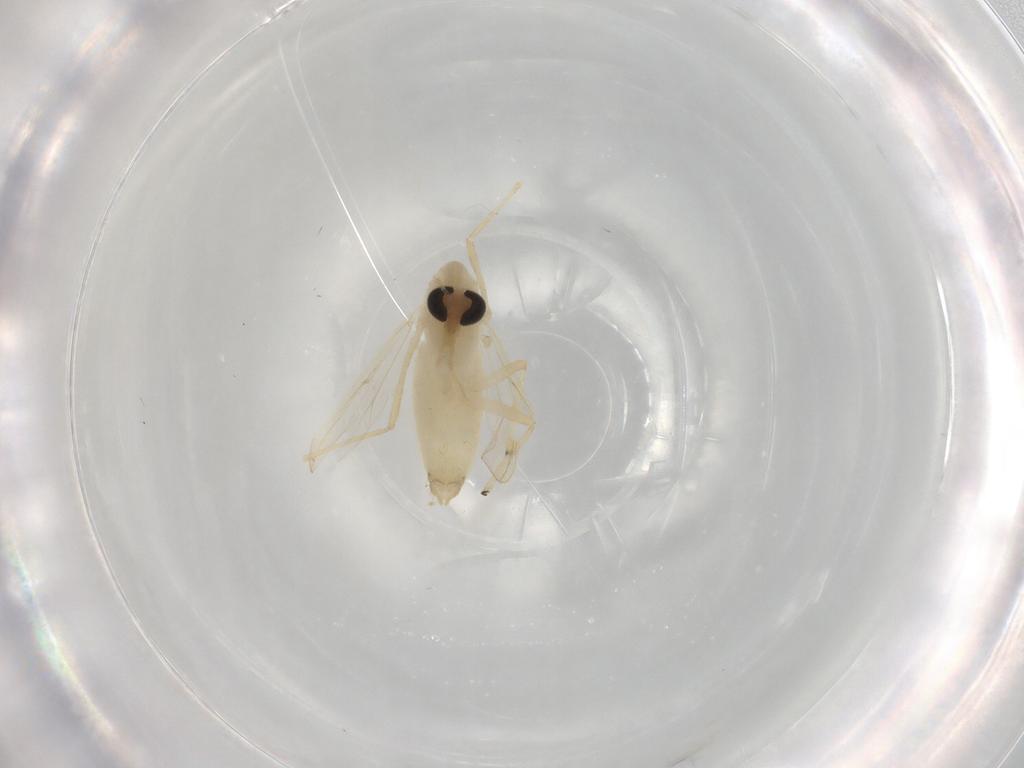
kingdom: Animalia
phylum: Arthropoda
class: Insecta
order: Diptera
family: Chironomidae
